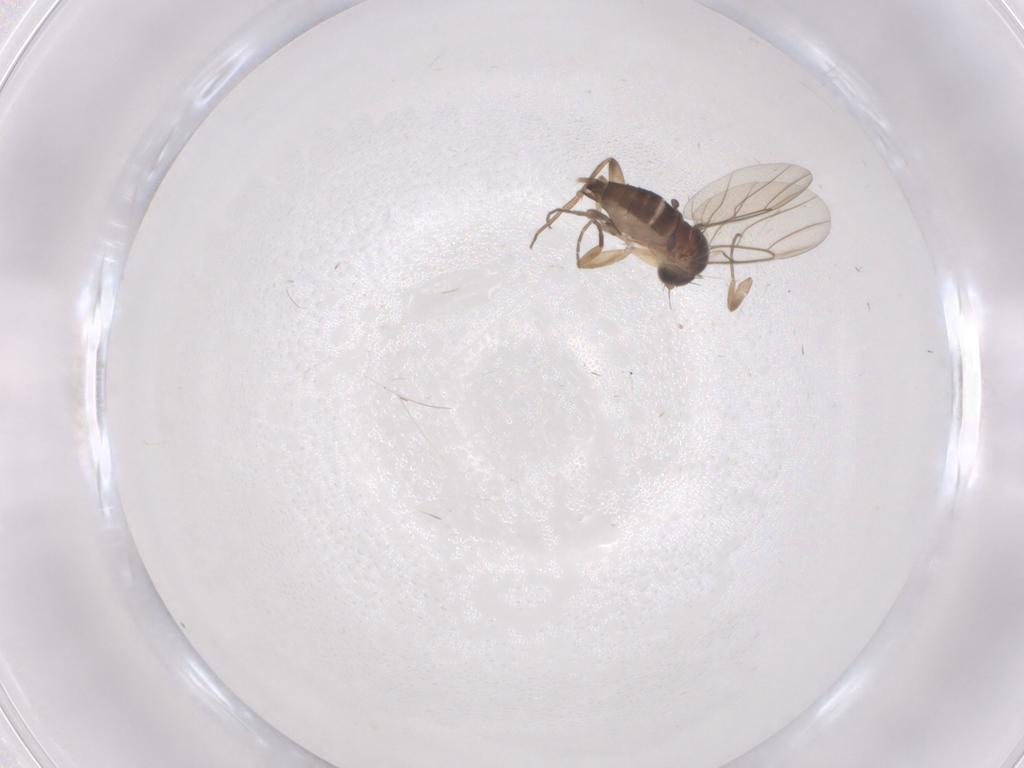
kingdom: Animalia
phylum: Arthropoda
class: Insecta
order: Diptera
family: Phoridae
